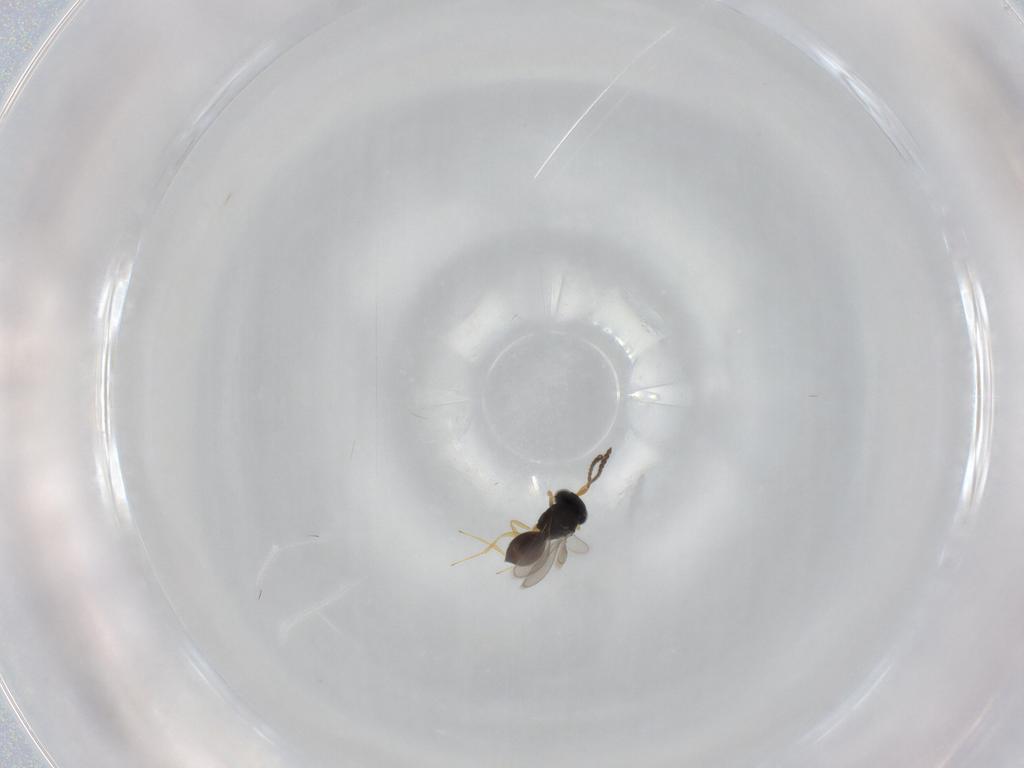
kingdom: Animalia
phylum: Arthropoda
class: Insecta
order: Hymenoptera
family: Scelionidae
